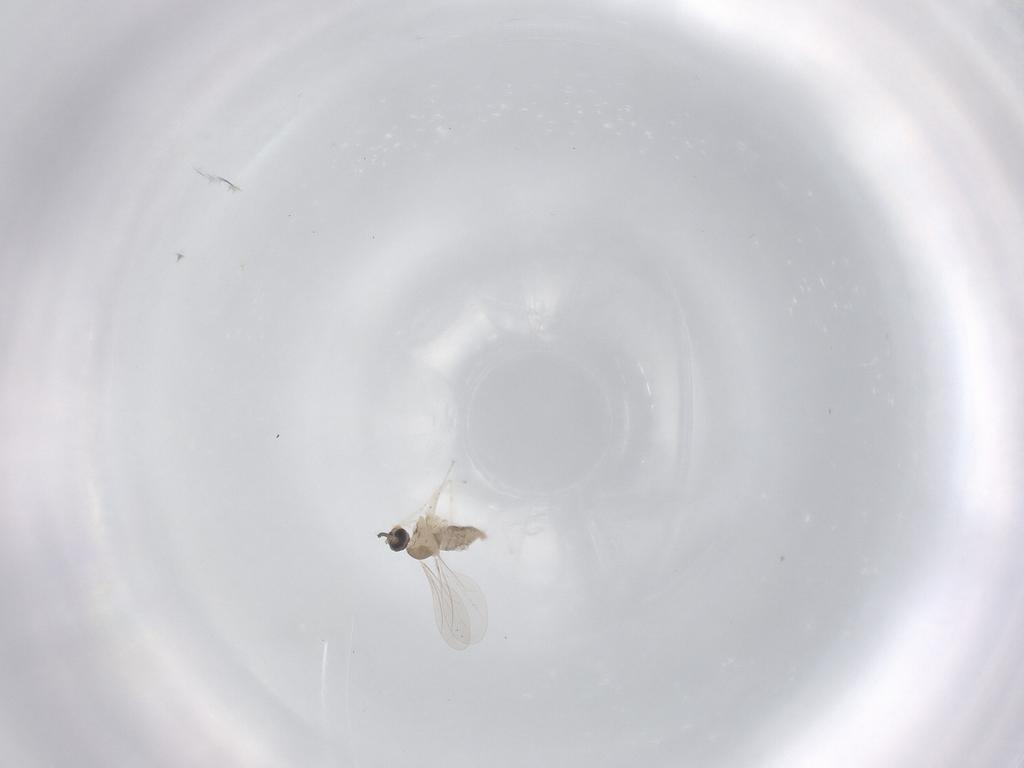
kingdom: Animalia
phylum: Arthropoda
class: Insecta
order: Diptera
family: Cecidomyiidae
